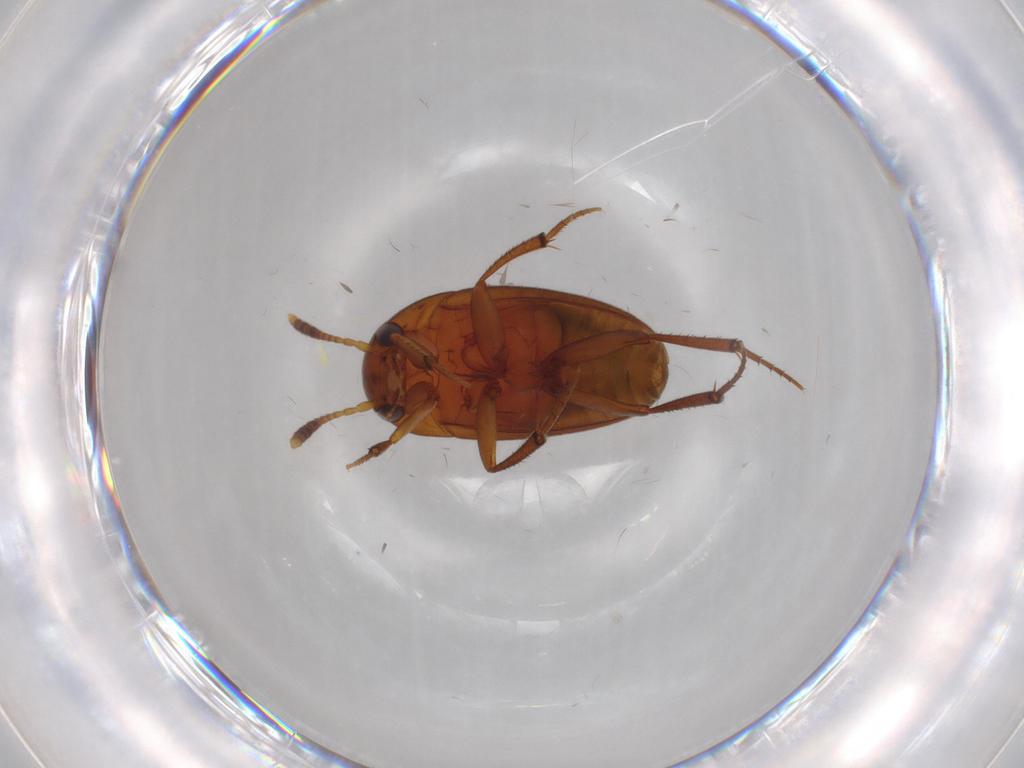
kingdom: Animalia
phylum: Arthropoda
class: Insecta
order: Coleoptera
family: Leiodidae
